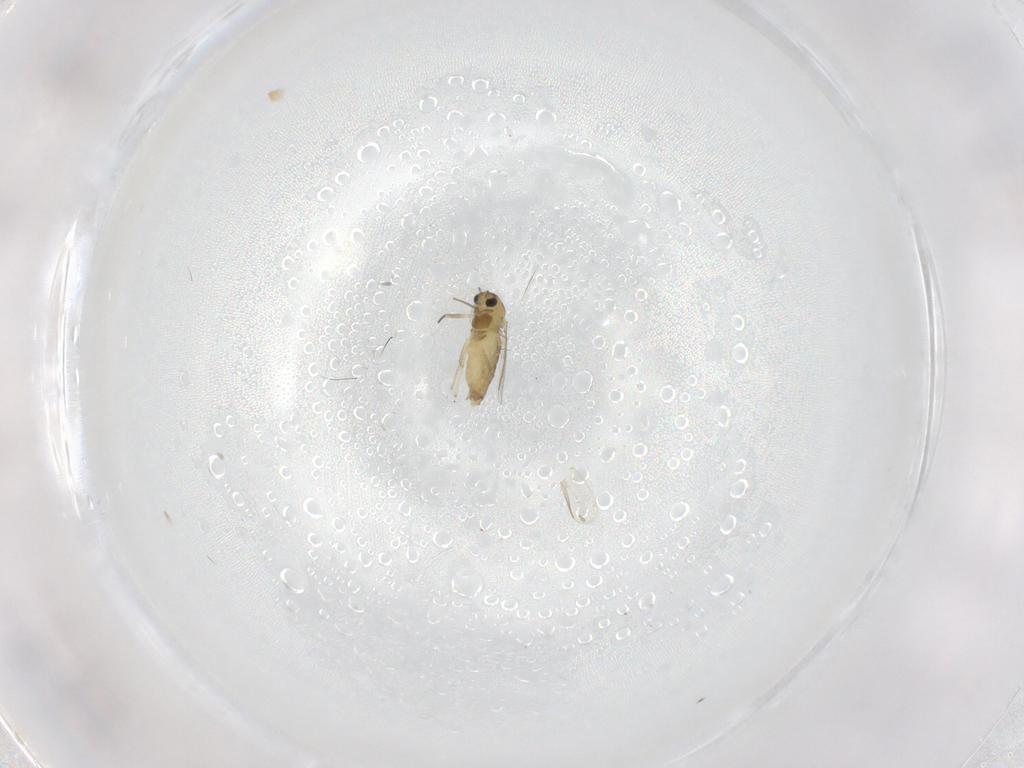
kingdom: Animalia
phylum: Arthropoda
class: Insecta
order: Diptera
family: Chironomidae
